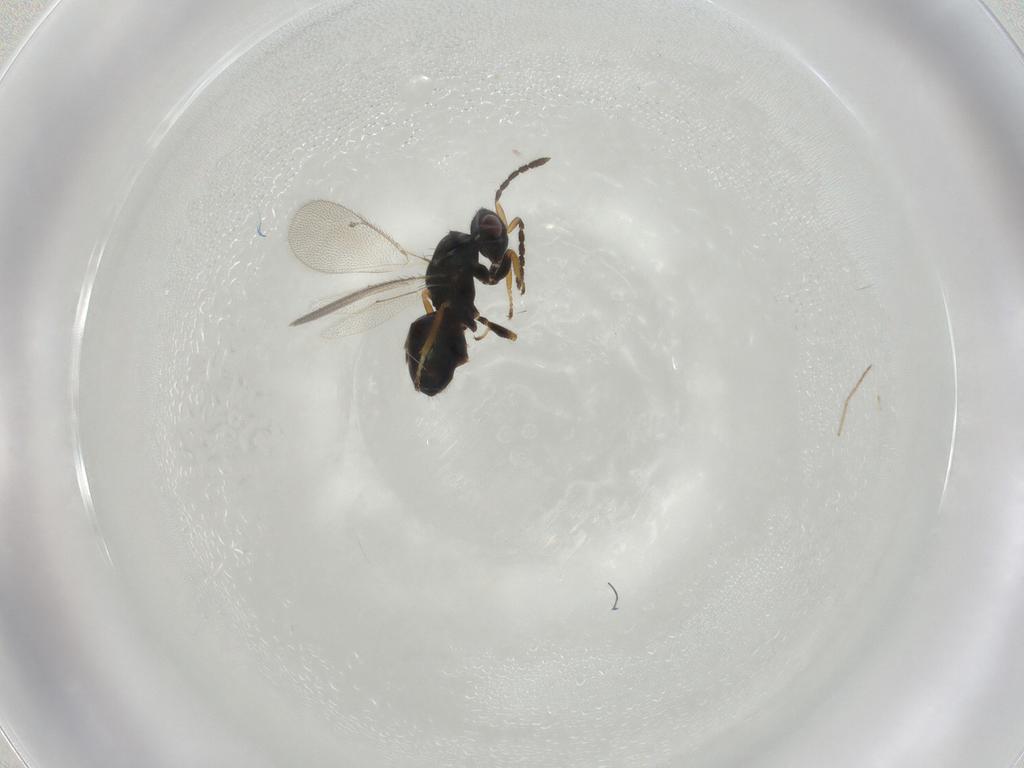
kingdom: Animalia
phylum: Arthropoda
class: Insecta
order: Hymenoptera
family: Eulophidae
